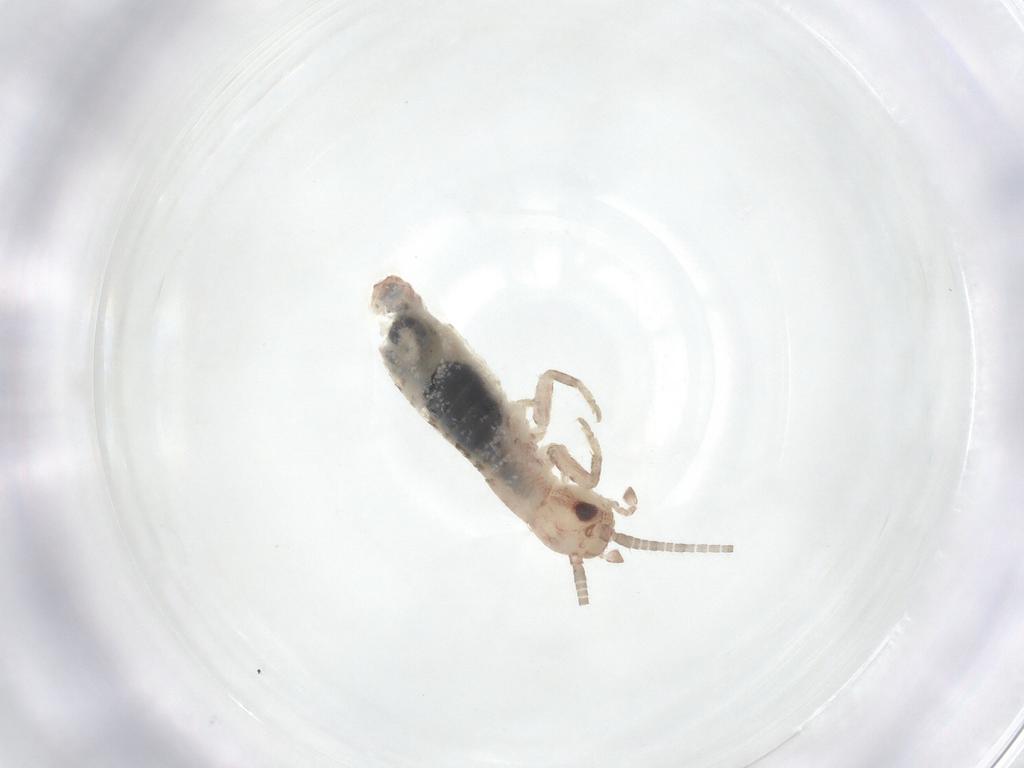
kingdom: Animalia
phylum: Arthropoda
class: Insecta
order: Orthoptera
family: Mogoplistidae
